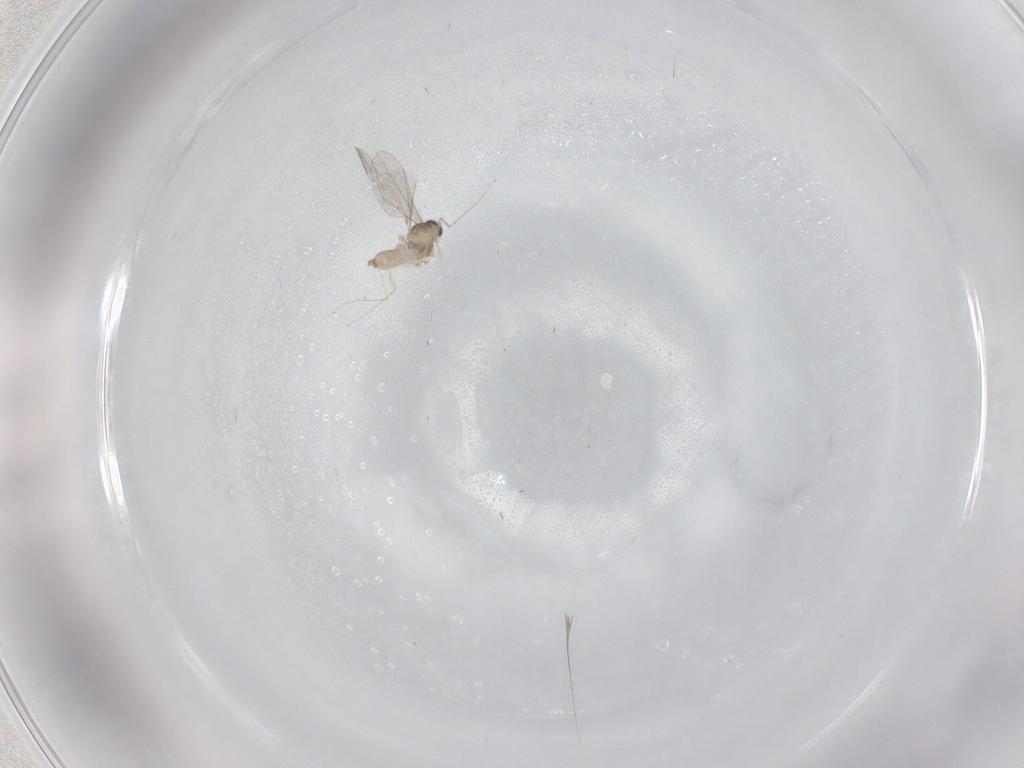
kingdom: Animalia
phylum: Arthropoda
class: Insecta
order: Diptera
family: Cecidomyiidae
